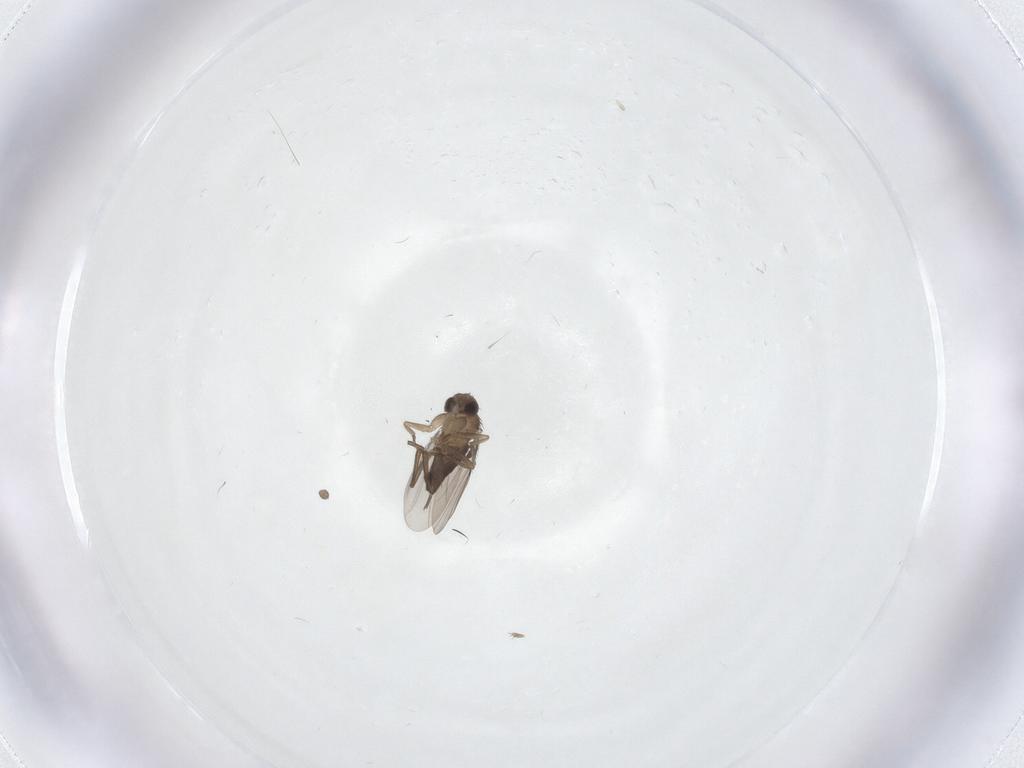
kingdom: Animalia
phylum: Arthropoda
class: Insecta
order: Diptera
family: Phoridae
